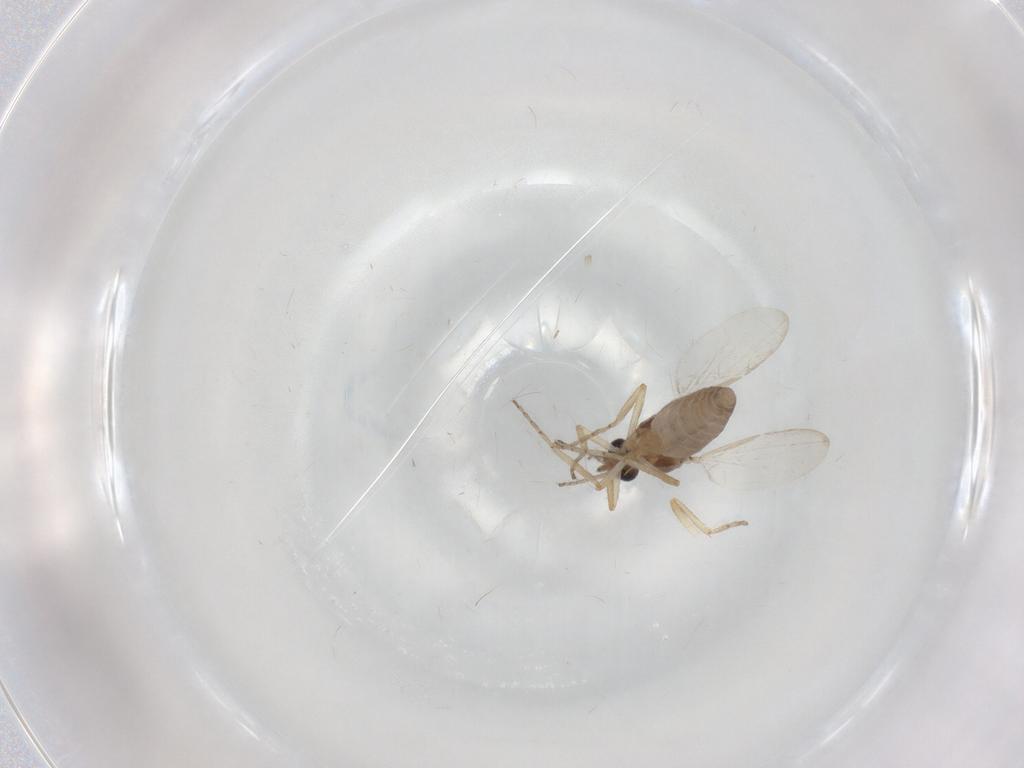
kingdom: Animalia
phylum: Arthropoda
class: Insecta
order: Diptera
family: Ceratopogonidae
